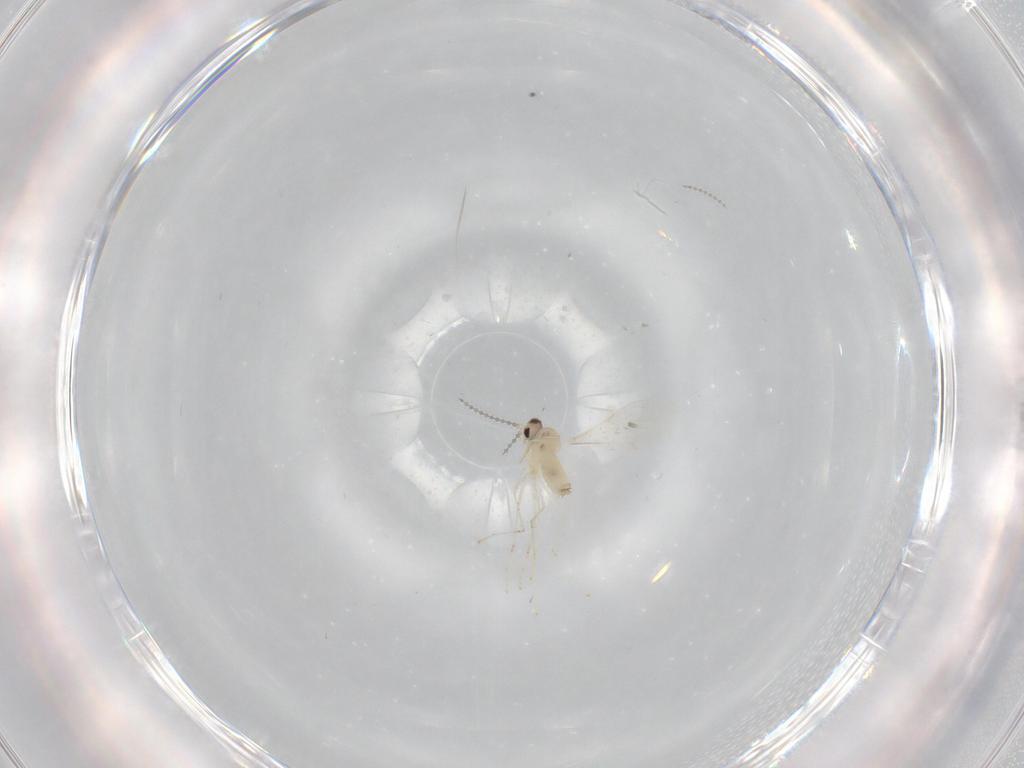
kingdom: Animalia
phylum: Arthropoda
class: Insecta
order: Diptera
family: Cecidomyiidae
